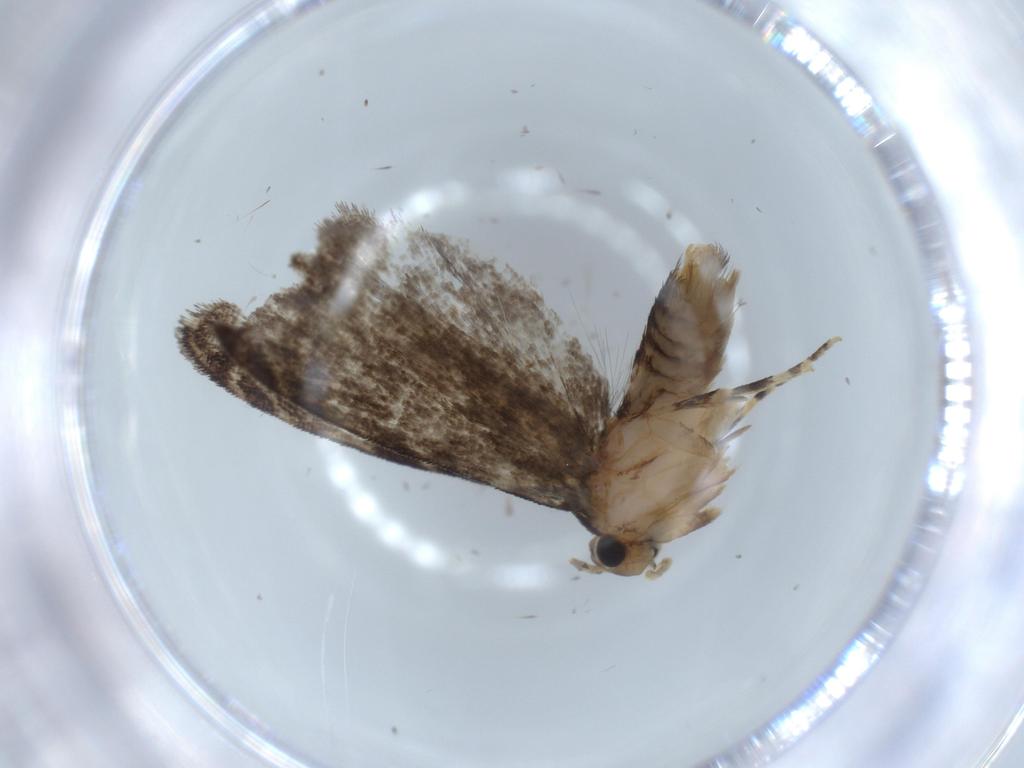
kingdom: Animalia
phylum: Arthropoda
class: Insecta
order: Lepidoptera
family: Tineidae
